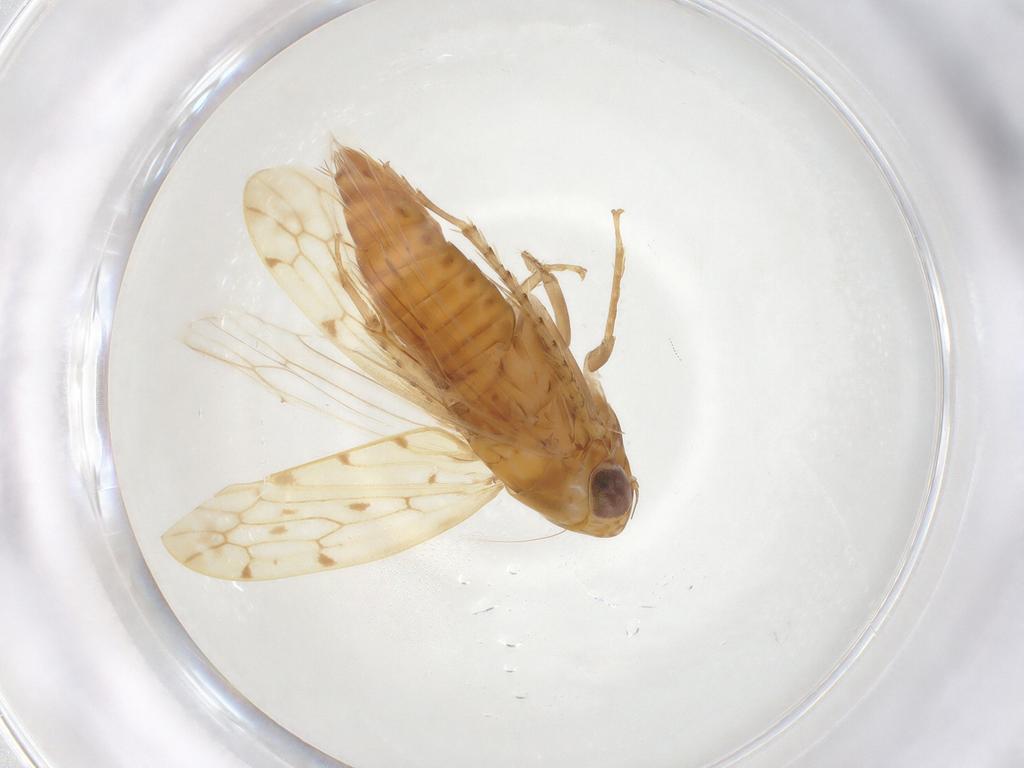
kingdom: Animalia
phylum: Arthropoda
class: Insecta
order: Hemiptera
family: Cicadellidae
